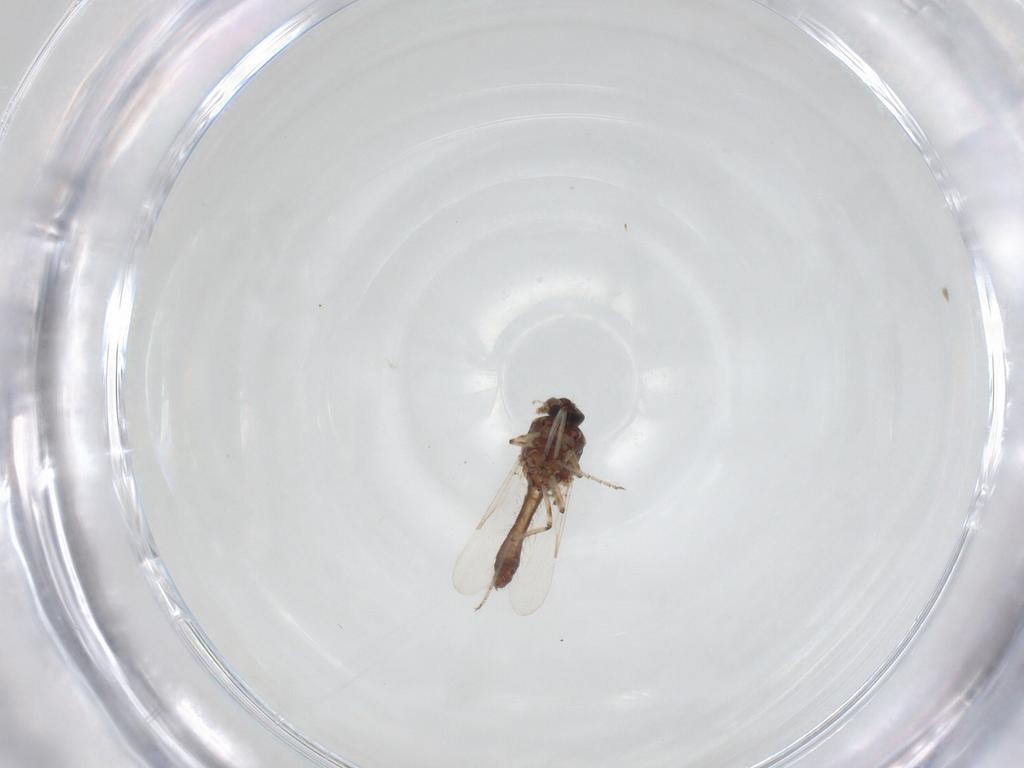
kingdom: Animalia
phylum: Arthropoda
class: Insecta
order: Diptera
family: Ceratopogonidae
